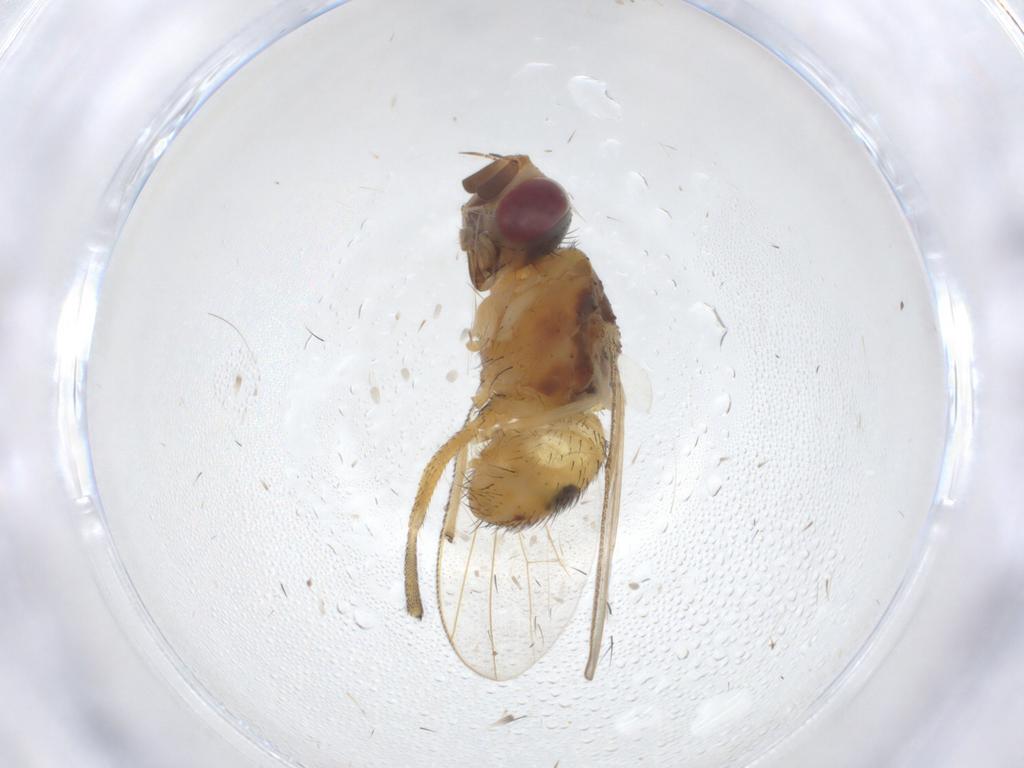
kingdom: Animalia
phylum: Arthropoda
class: Insecta
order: Diptera
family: Muscidae
